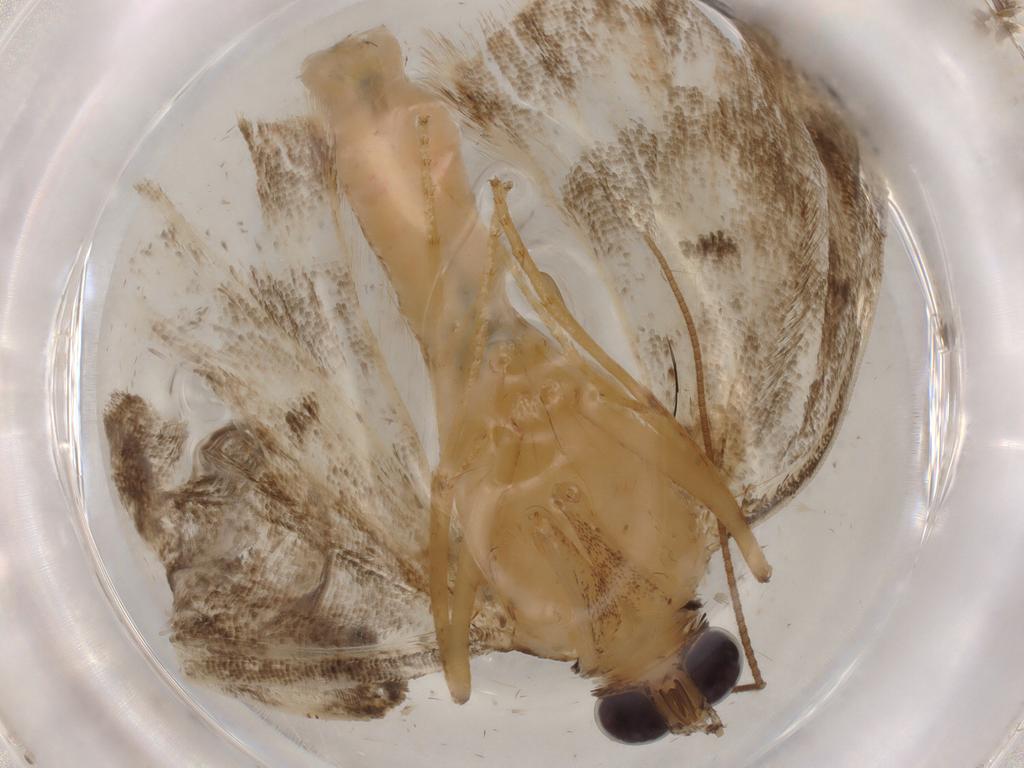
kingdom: Animalia
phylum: Arthropoda
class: Insecta
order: Lepidoptera
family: Geometridae
